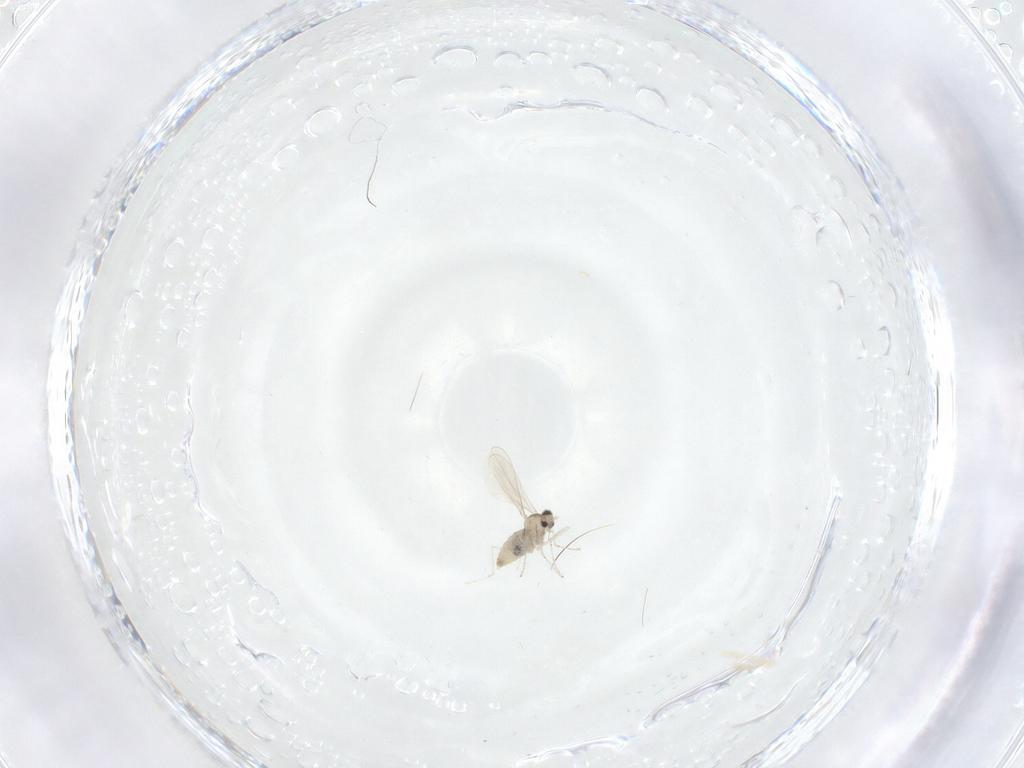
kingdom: Animalia
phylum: Arthropoda
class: Insecta
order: Diptera
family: Cecidomyiidae
